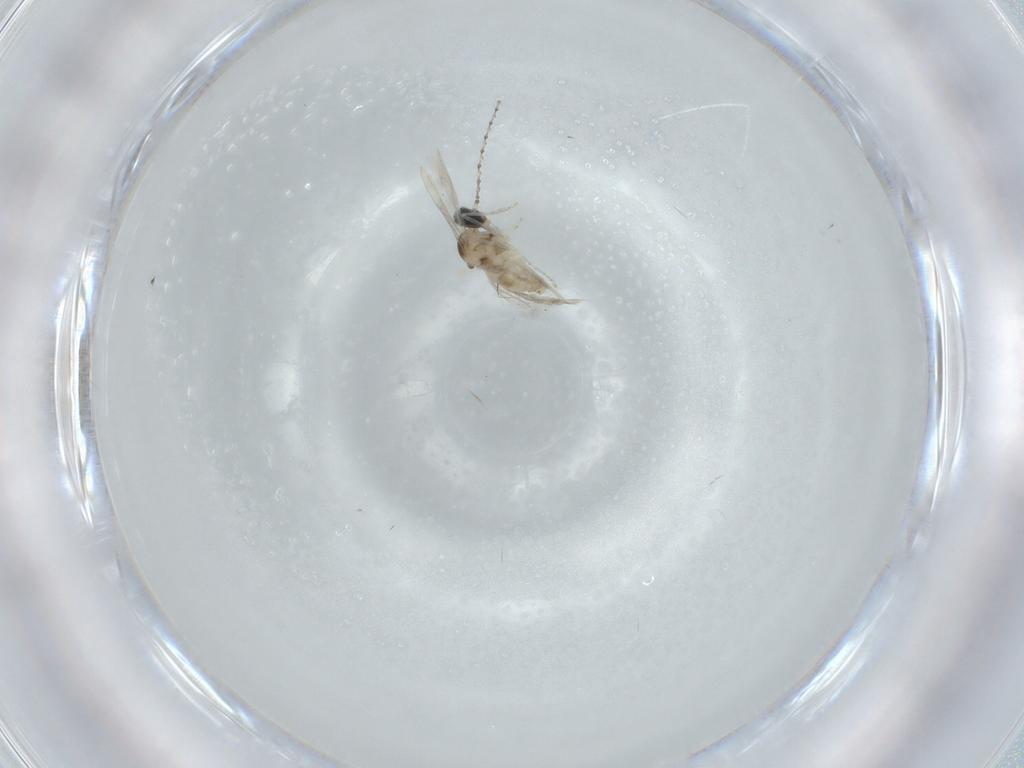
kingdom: Animalia
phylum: Arthropoda
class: Insecta
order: Diptera
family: Cecidomyiidae
